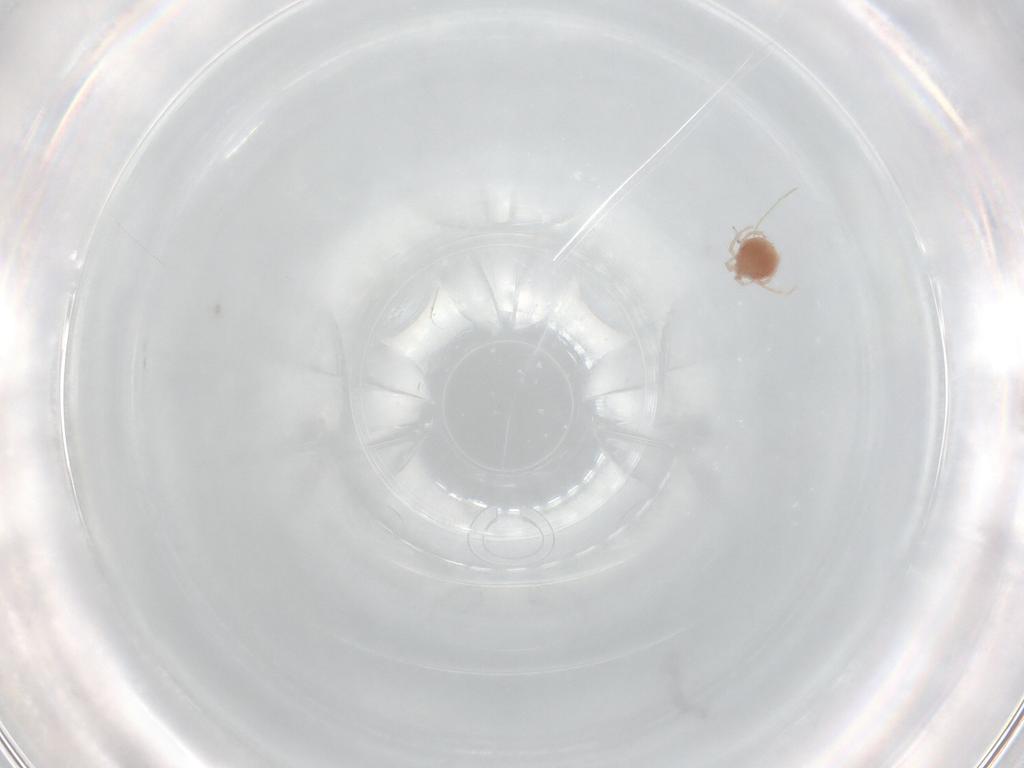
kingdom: Animalia
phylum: Arthropoda
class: Arachnida
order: Trombidiformes
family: Lebertiidae
